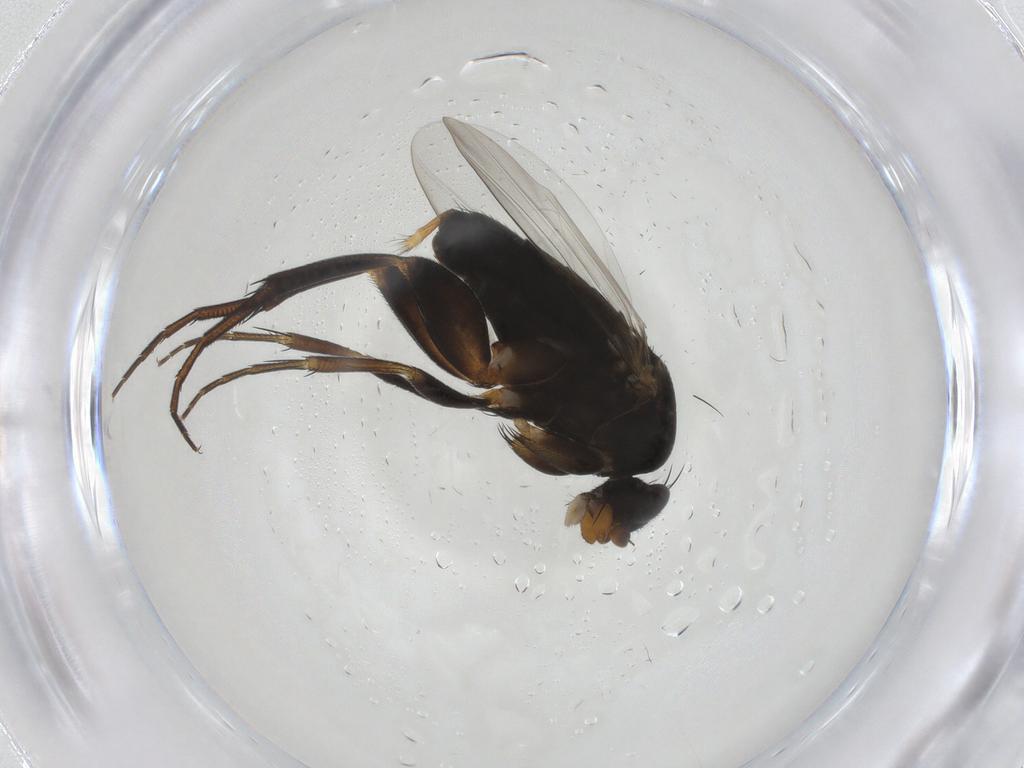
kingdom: Animalia
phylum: Arthropoda
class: Insecta
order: Diptera
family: Phoridae
